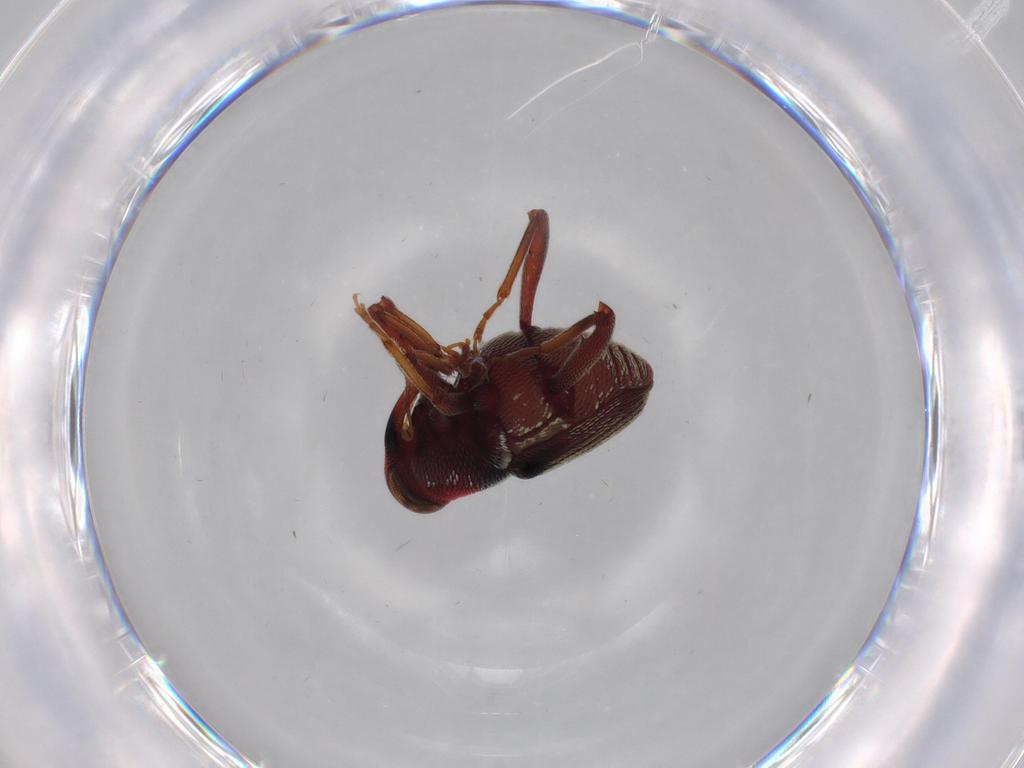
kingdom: Animalia
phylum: Arthropoda
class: Insecta
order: Coleoptera
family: Curculionidae
